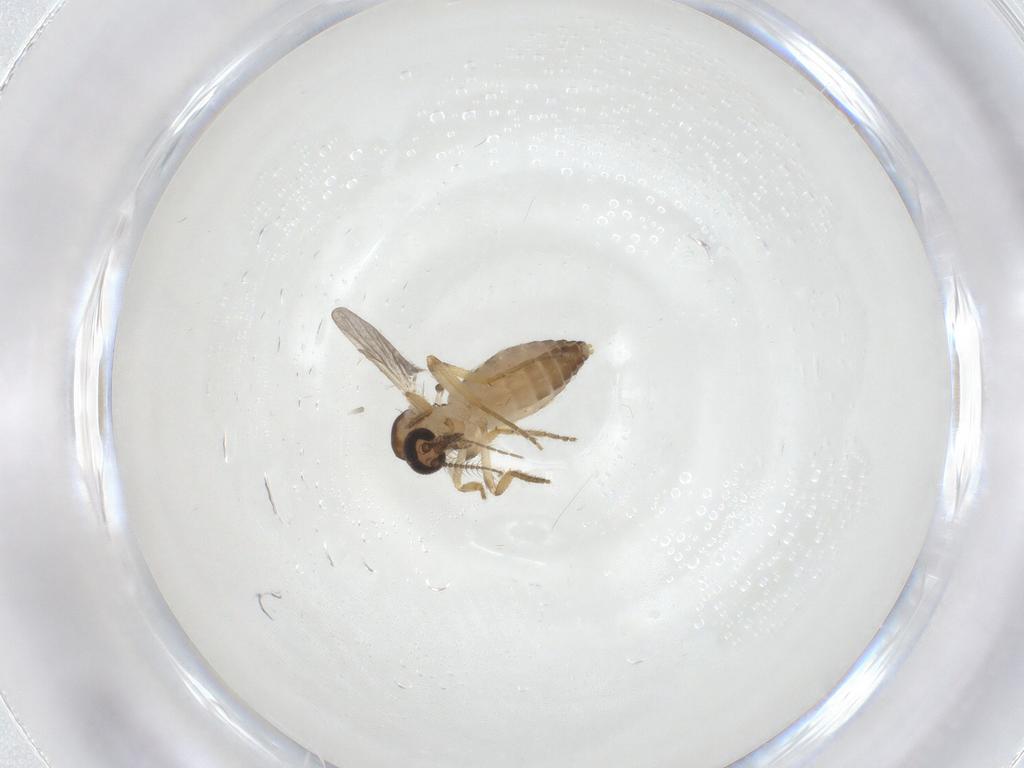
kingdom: Animalia
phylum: Arthropoda
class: Insecta
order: Diptera
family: Ceratopogonidae
